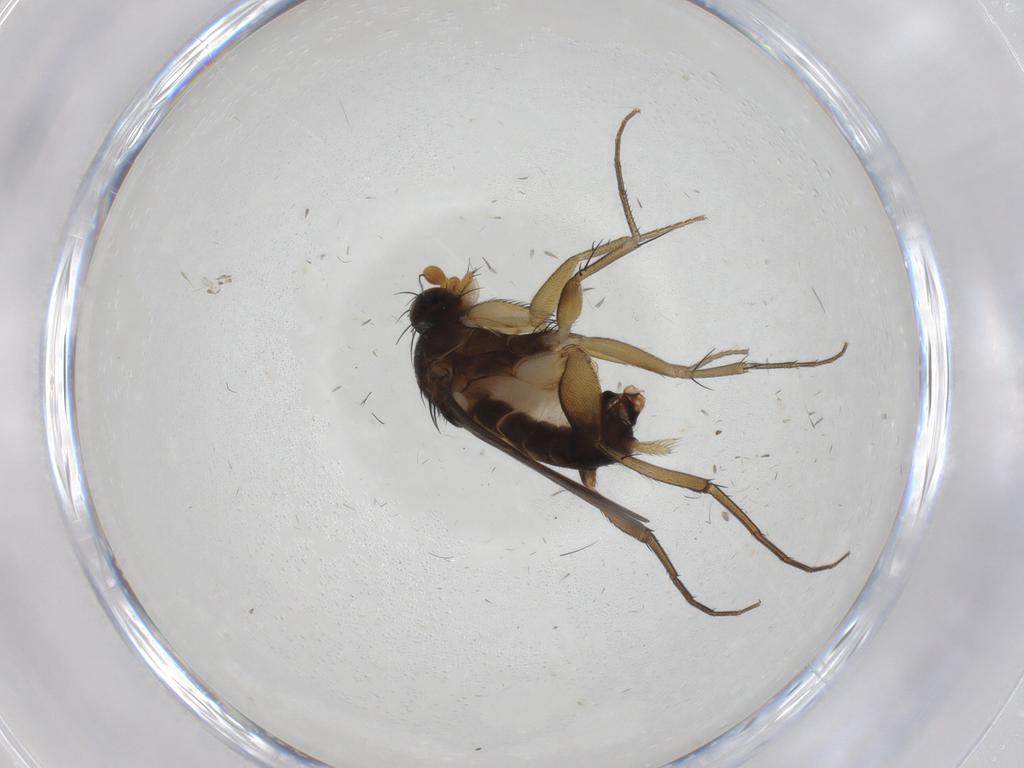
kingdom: Animalia
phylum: Arthropoda
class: Insecta
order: Diptera
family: Phoridae
